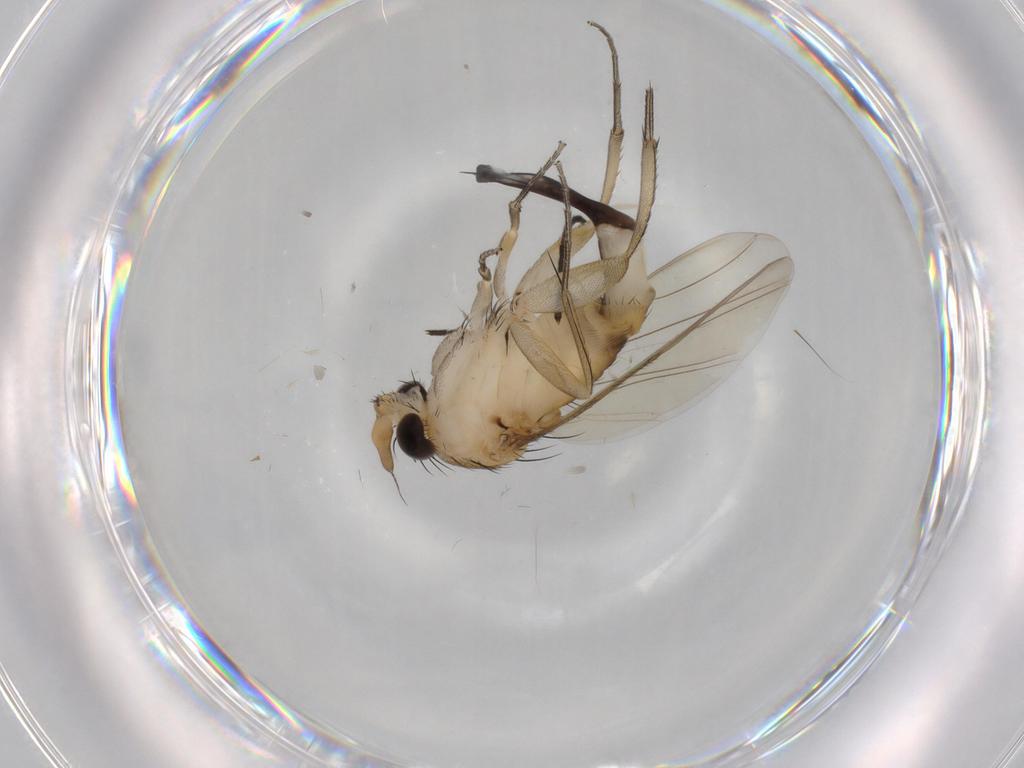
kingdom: Animalia
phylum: Arthropoda
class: Insecta
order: Diptera
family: Phoridae
